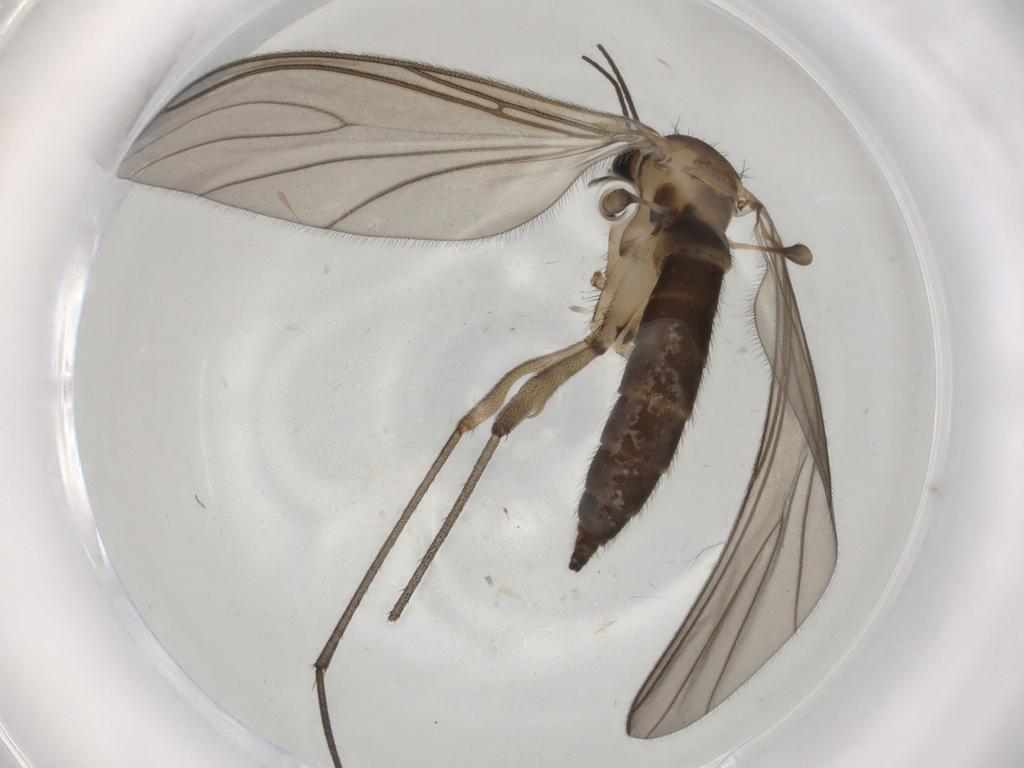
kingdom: Animalia
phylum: Arthropoda
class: Insecta
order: Diptera
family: Sciaridae
